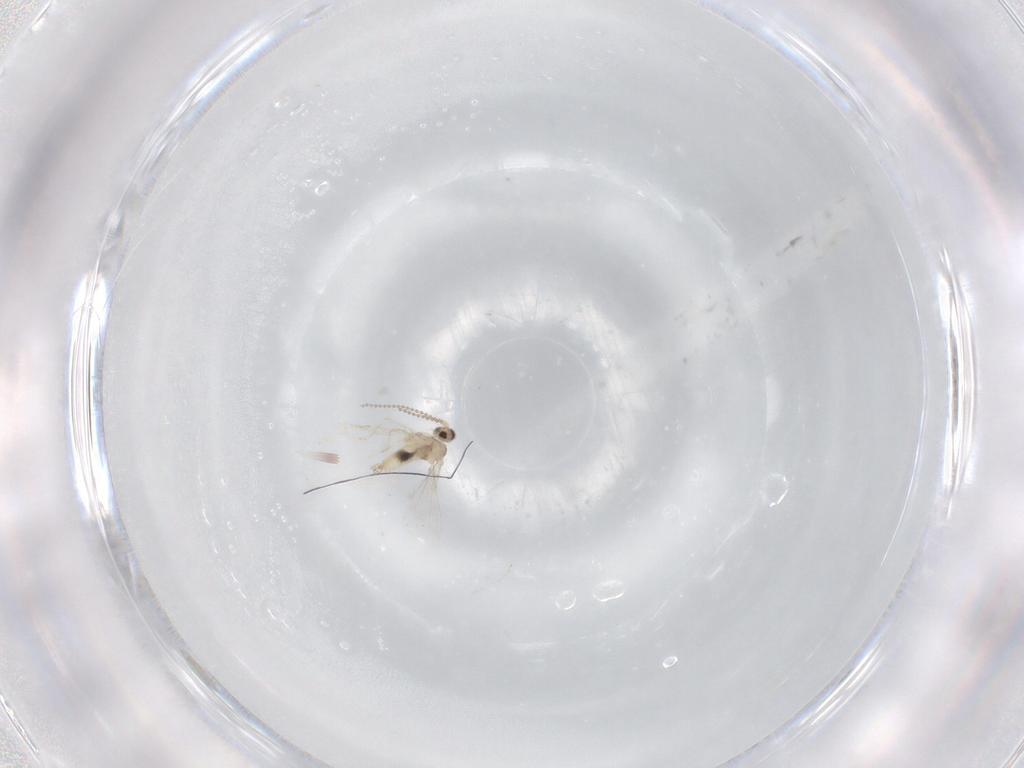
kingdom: Animalia
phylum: Arthropoda
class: Insecta
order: Diptera
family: Cecidomyiidae
